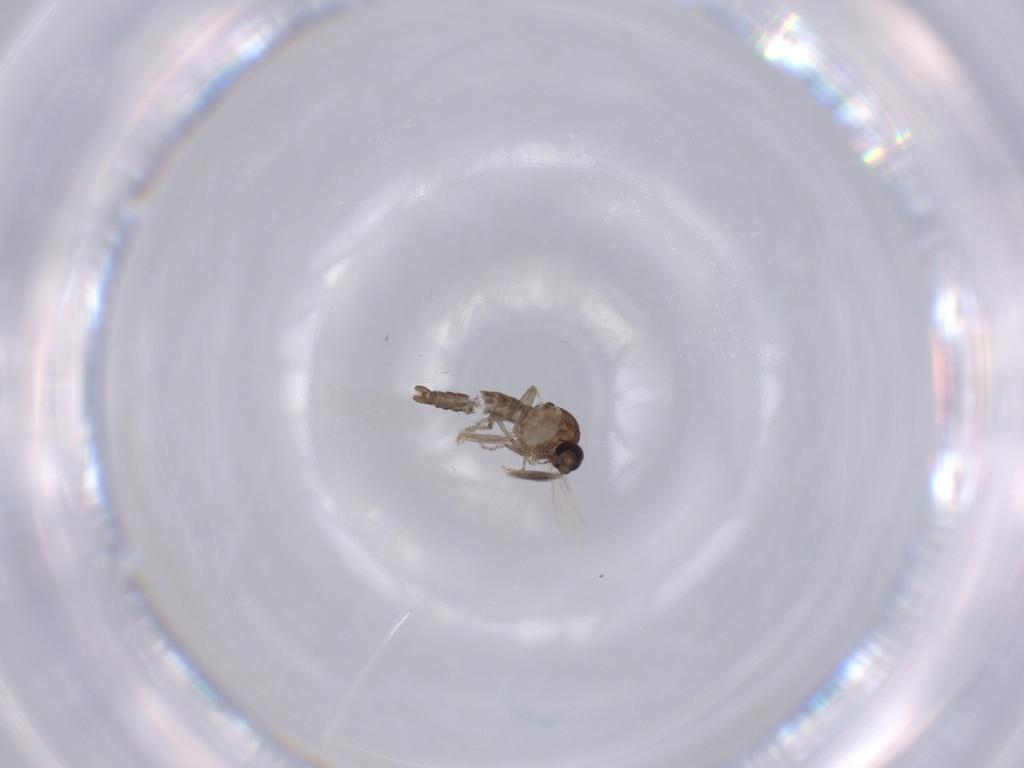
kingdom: Animalia
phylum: Arthropoda
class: Insecta
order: Diptera
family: Ceratopogonidae
